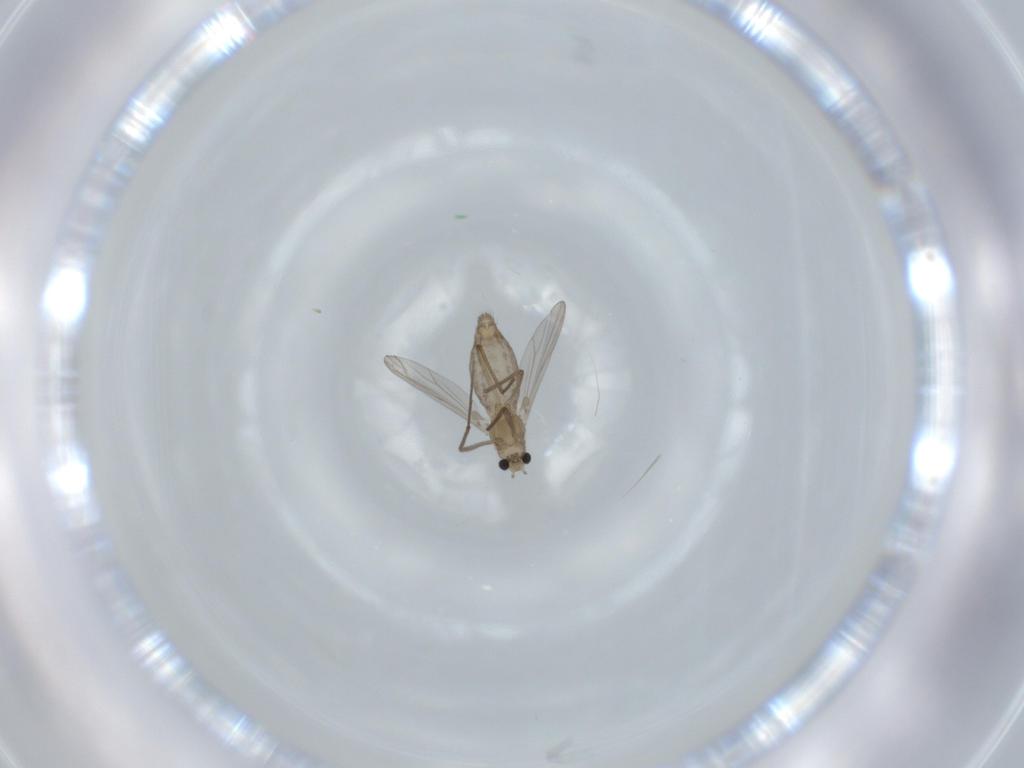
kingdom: Animalia
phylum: Arthropoda
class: Insecta
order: Diptera
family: Chironomidae
